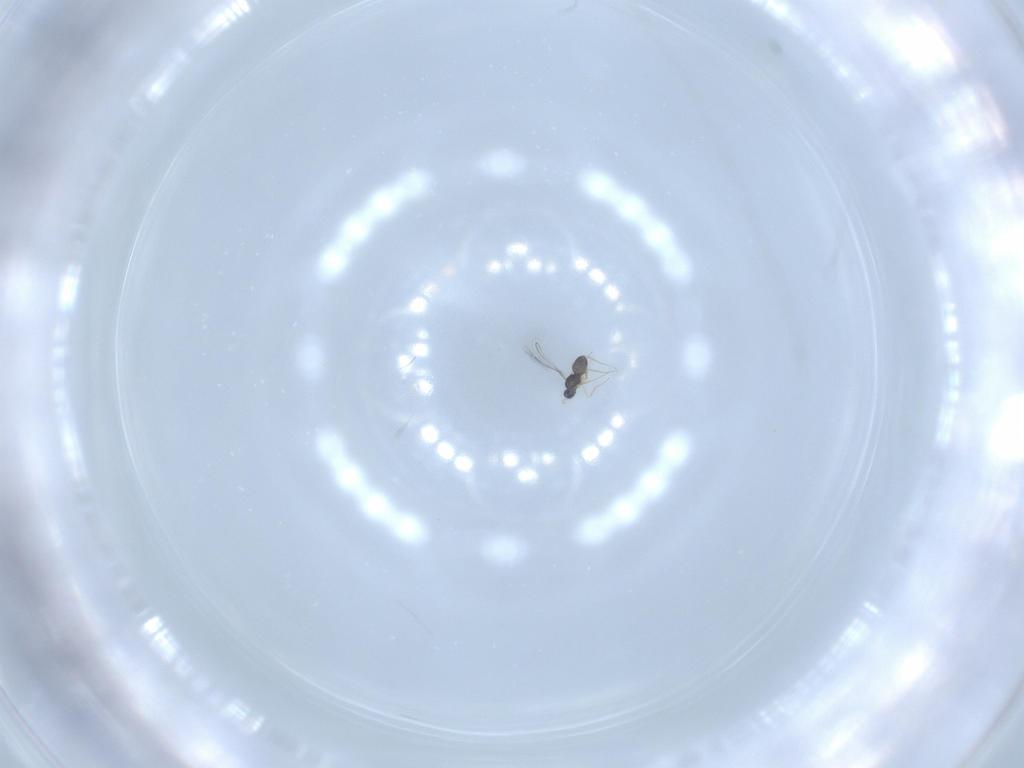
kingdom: Animalia
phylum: Arthropoda
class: Insecta
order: Hymenoptera
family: Mymaridae
